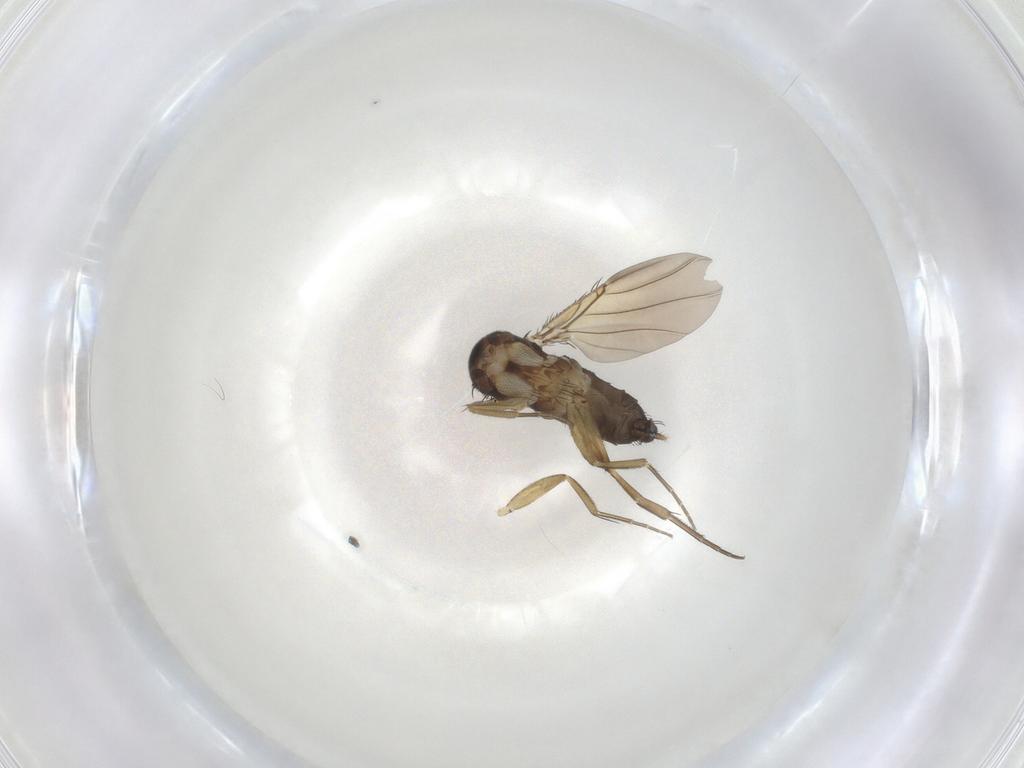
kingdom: Animalia
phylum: Arthropoda
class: Insecta
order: Diptera
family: Phoridae
